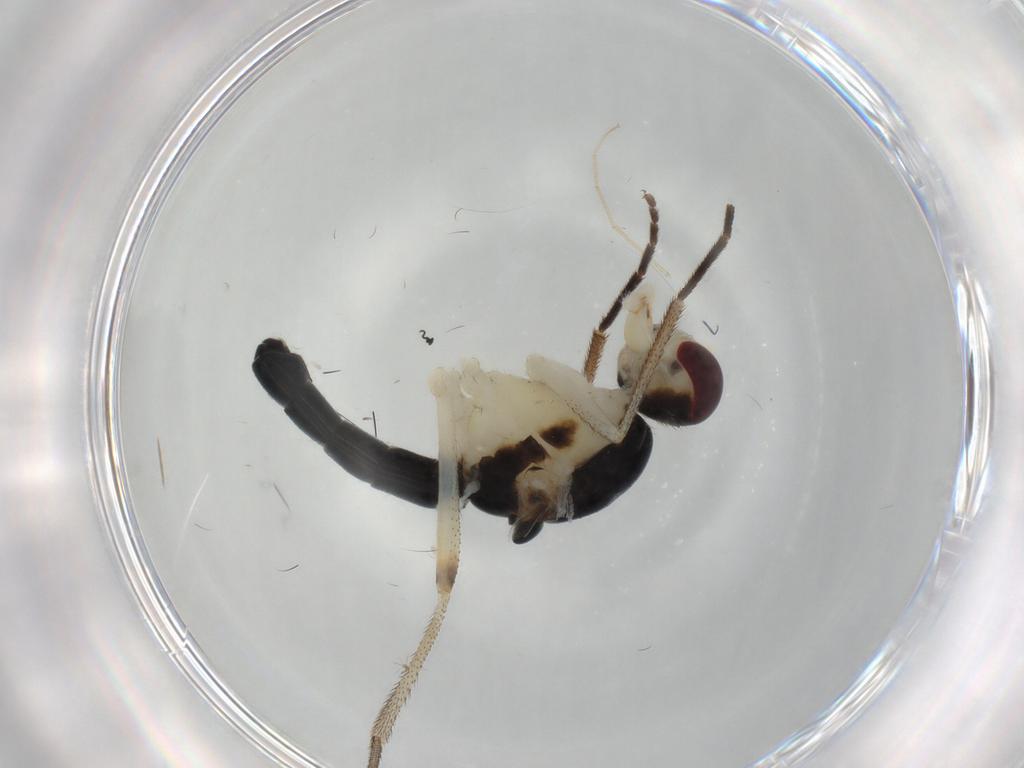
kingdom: Animalia
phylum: Arthropoda
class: Insecta
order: Diptera
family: Scathophagidae
